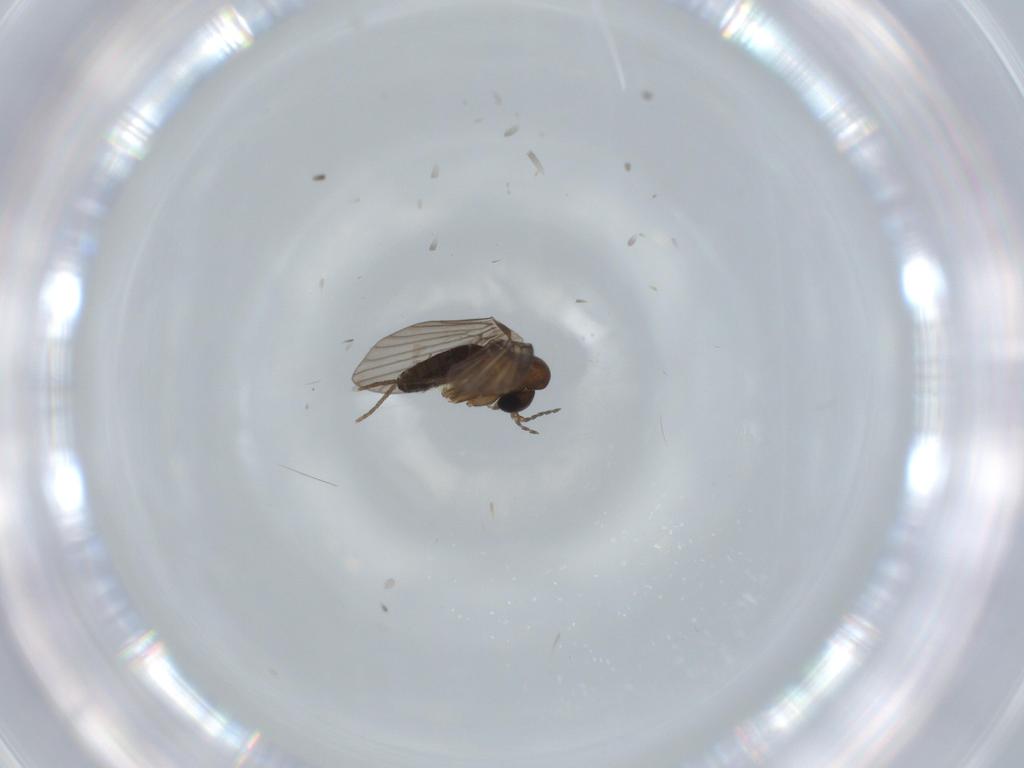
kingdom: Animalia
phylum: Arthropoda
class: Insecta
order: Diptera
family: Psychodidae
